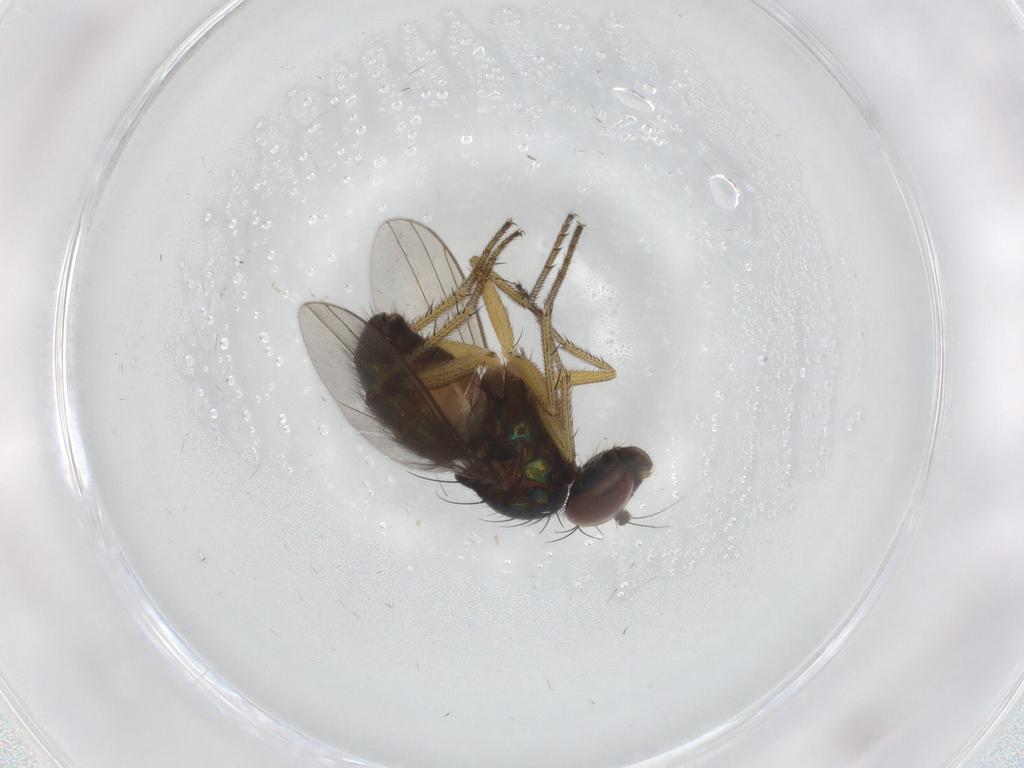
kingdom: Animalia
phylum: Arthropoda
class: Insecta
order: Diptera
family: Dolichopodidae
